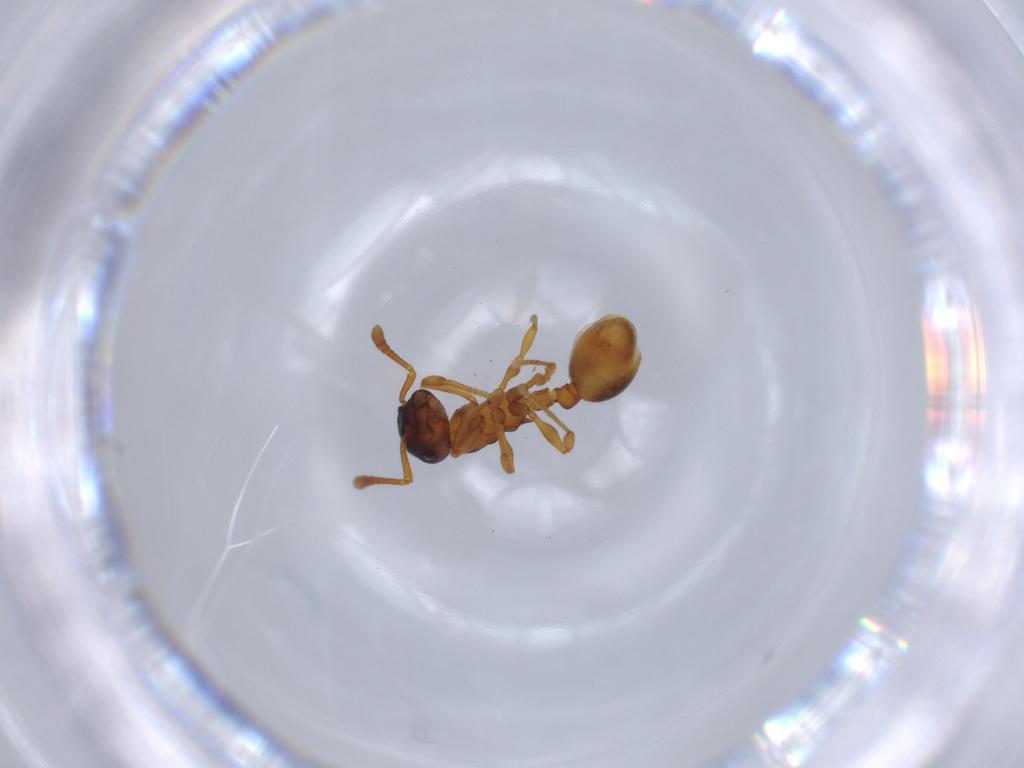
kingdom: Animalia
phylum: Arthropoda
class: Insecta
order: Hymenoptera
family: Formicidae
